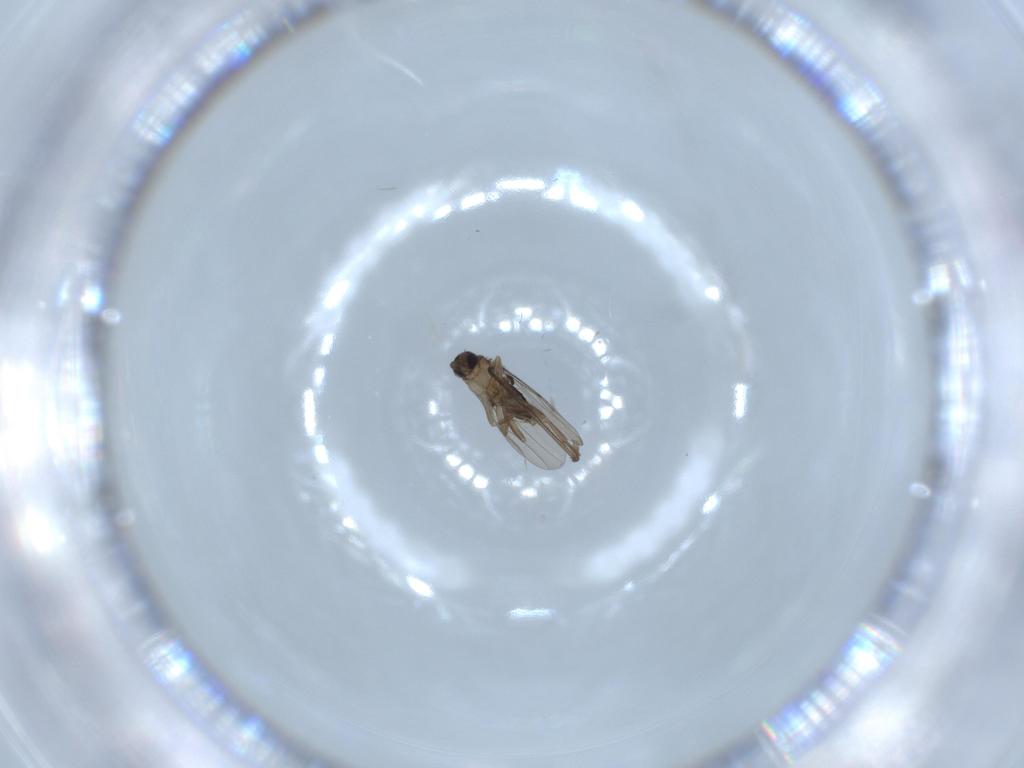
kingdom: Animalia
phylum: Arthropoda
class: Insecta
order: Diptera
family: Phoridae
